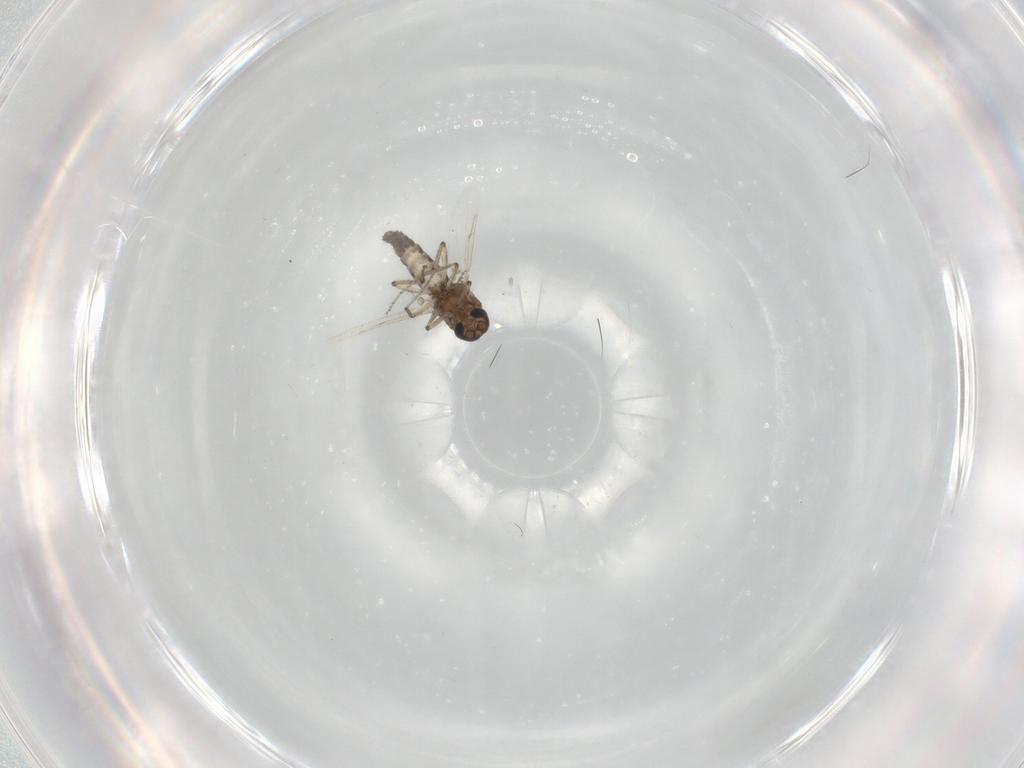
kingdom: Animalia
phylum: Arthropoda
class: Insecta
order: Diptera
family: Ceratopogonidae
